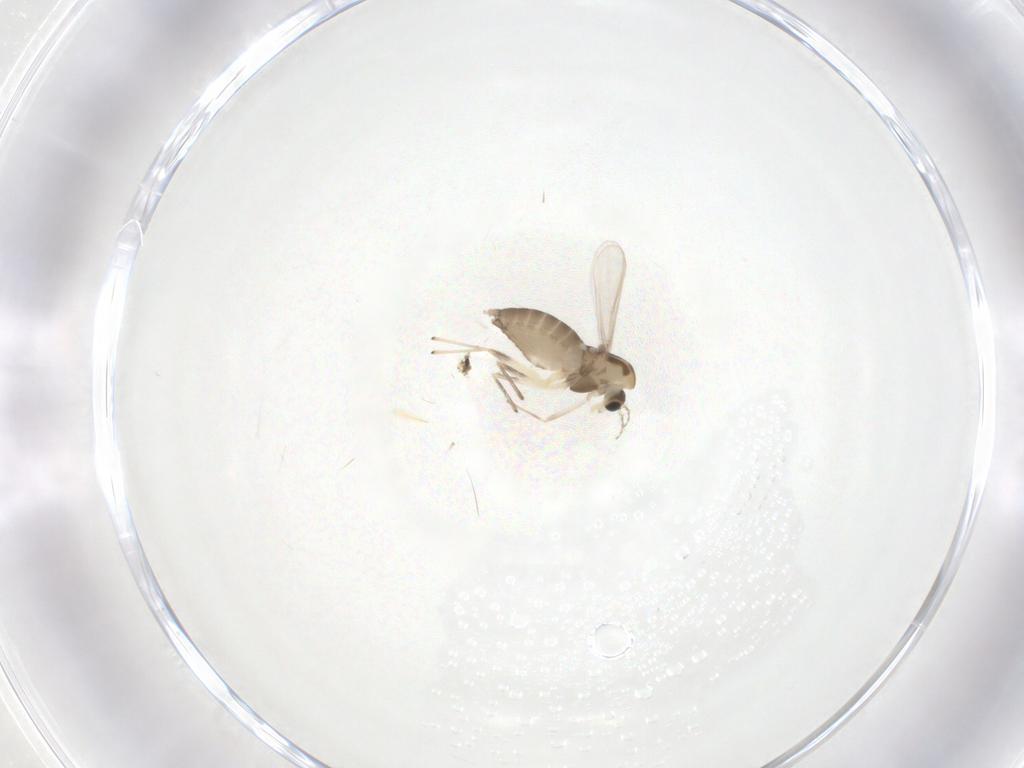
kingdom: Animalia
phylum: Arthropoda
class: Insecta
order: Diptera
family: Chironomidae
